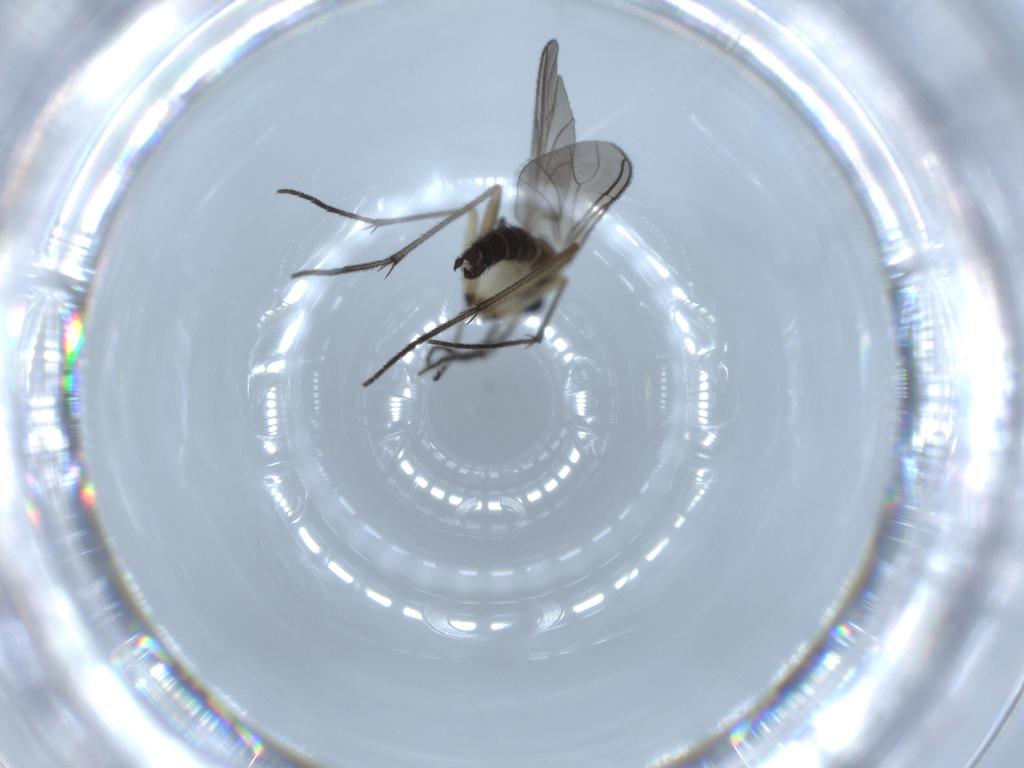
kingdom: Animalia
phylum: Arthropoda
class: Insecta
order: Diptera
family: Sciaridae
